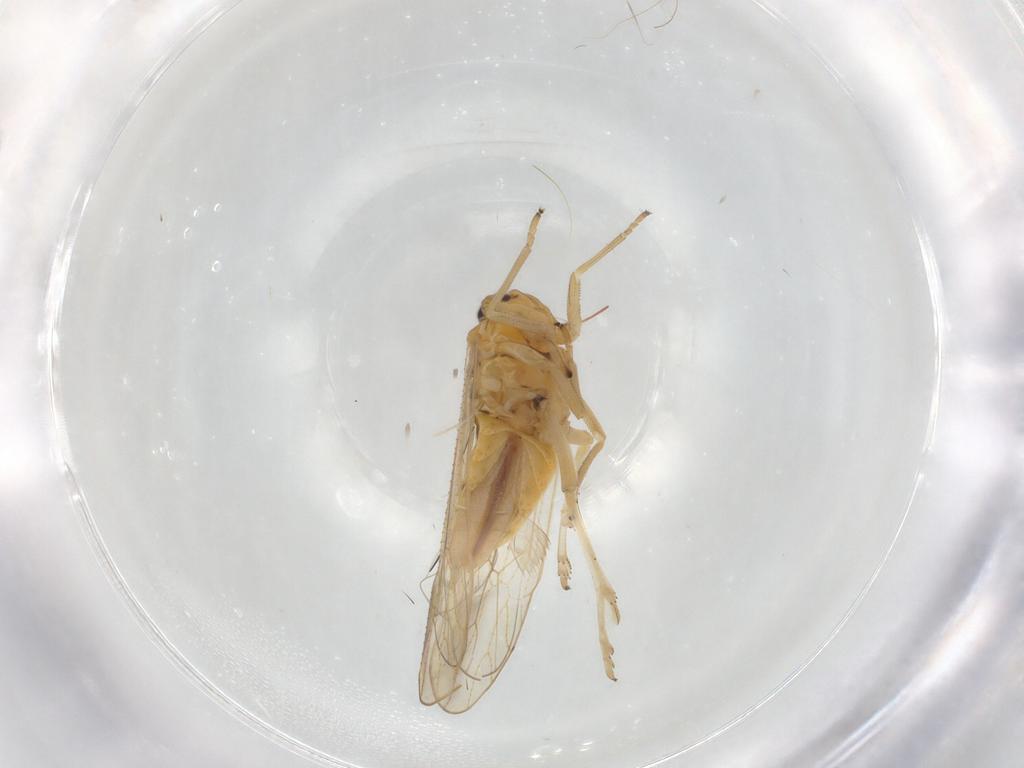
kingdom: Animalia
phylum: Arthropoda
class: Insecta
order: Hemiptera
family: Delphacidae
